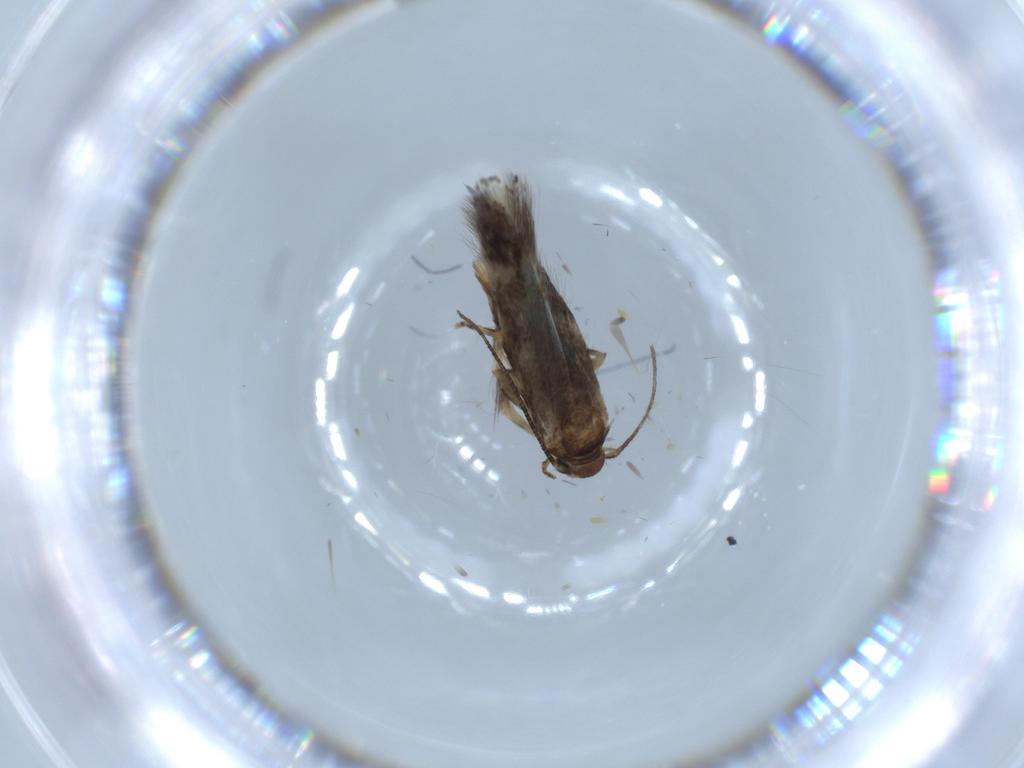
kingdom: Animalia
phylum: Arthropoda
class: Insecta
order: Lepidoptera
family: Elachistidae
